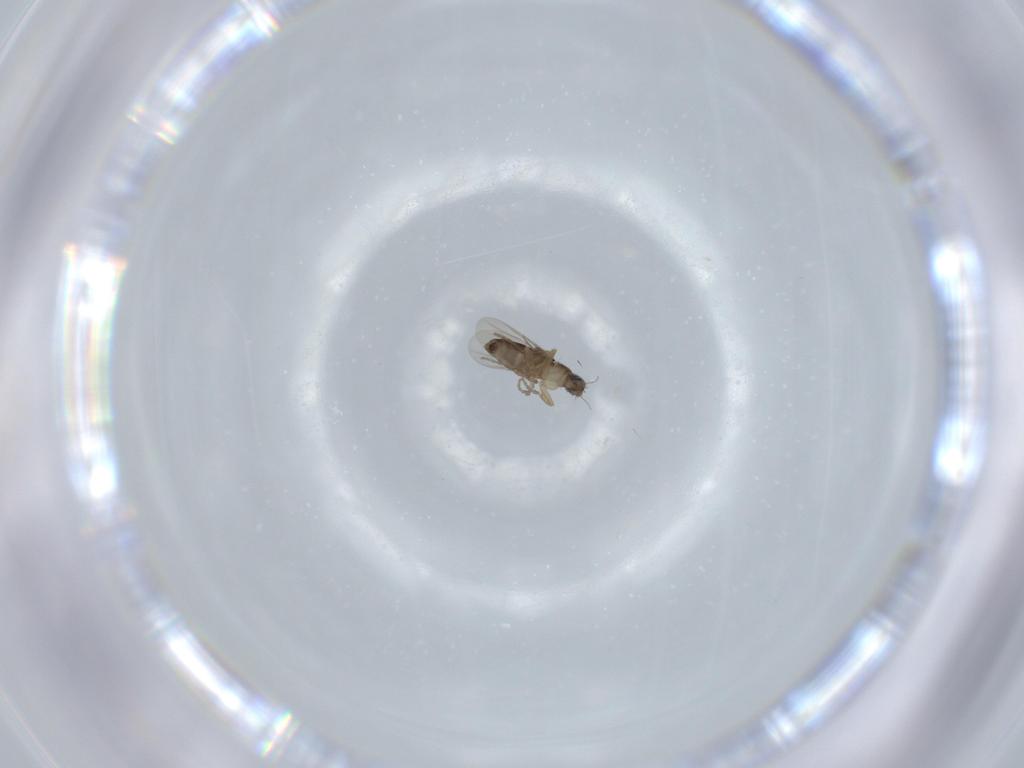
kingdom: Animalia
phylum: Arthropoda
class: Insecta
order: Diptera
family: Phoridae
